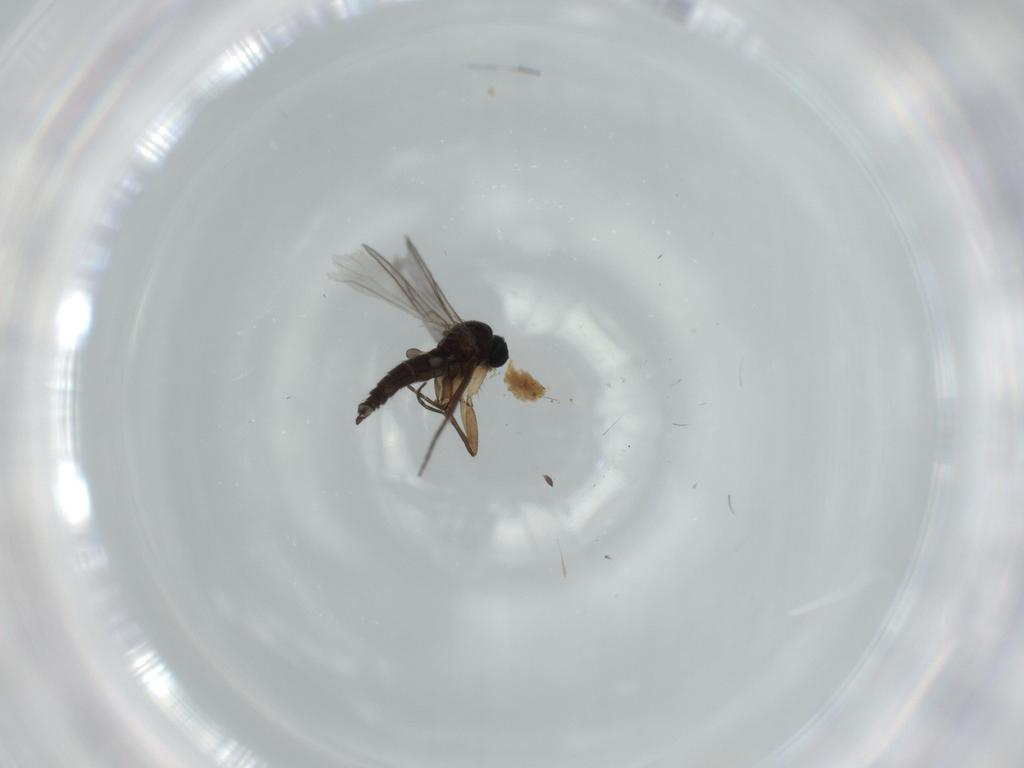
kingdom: Animalia
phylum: Arthropoda
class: Insecta
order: Diptera
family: Sciaridae
